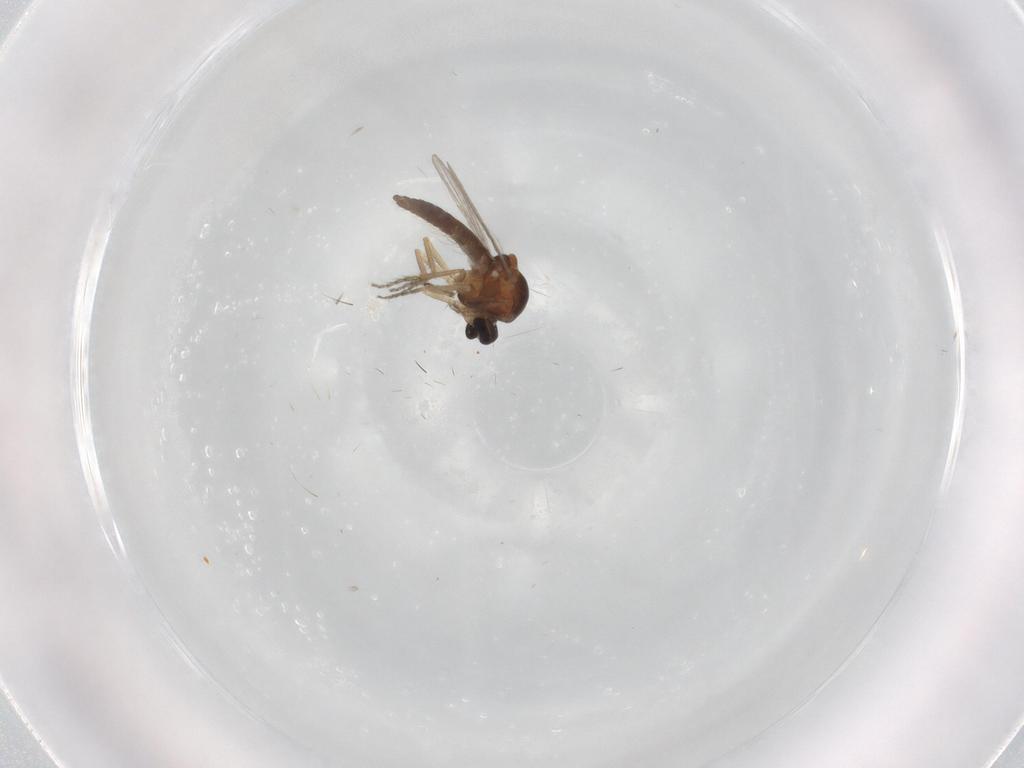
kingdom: Animalia
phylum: Arthropoda
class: Insecta
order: Diptera
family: Ceratopogonidae
